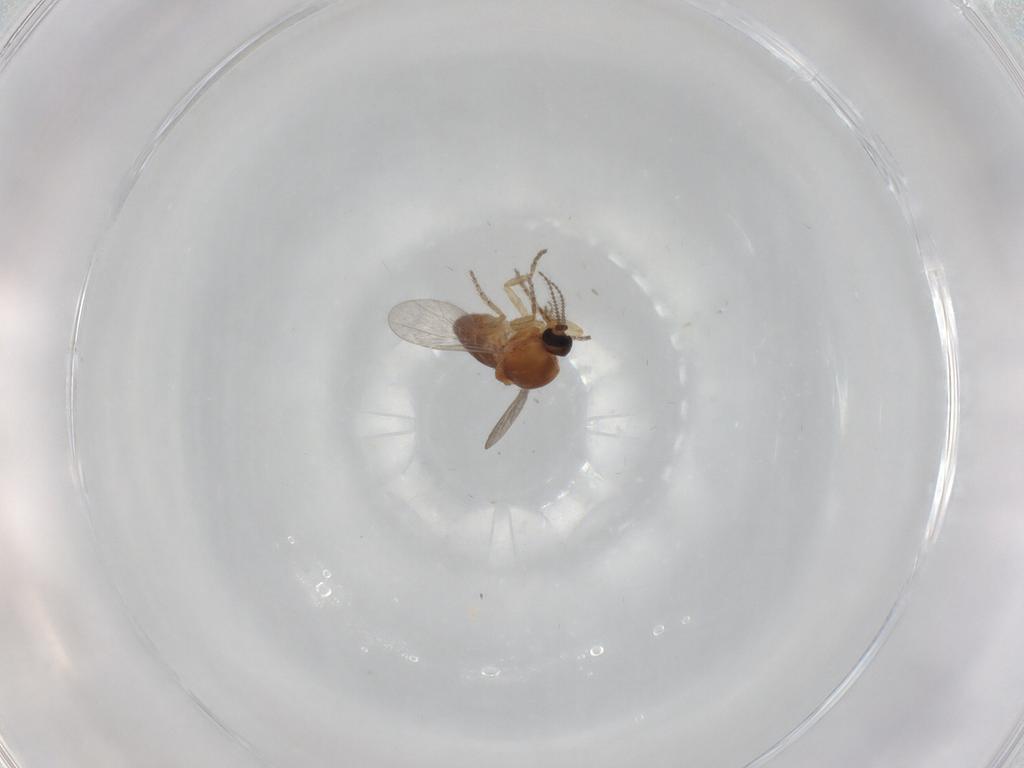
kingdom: Animalia
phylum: Arthropoda
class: Insecta
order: Diptera
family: Ceratopogonidae
